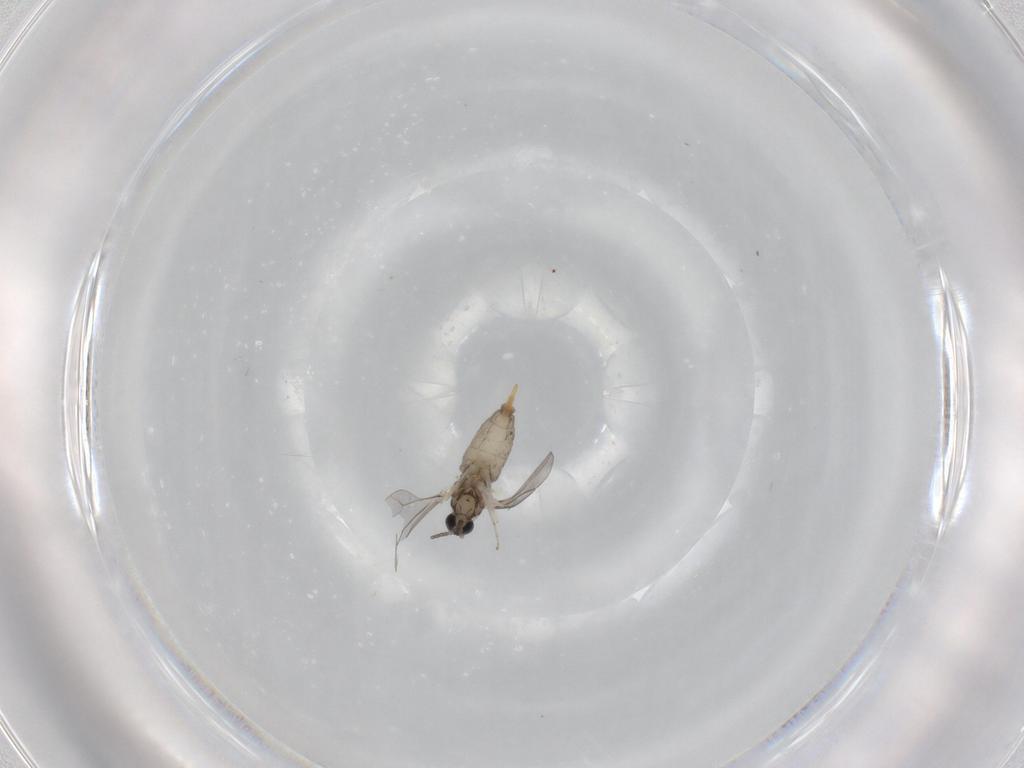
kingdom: Animalia
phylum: Arthropoda
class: Insecta
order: Diptera
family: Cecidomyiidae
